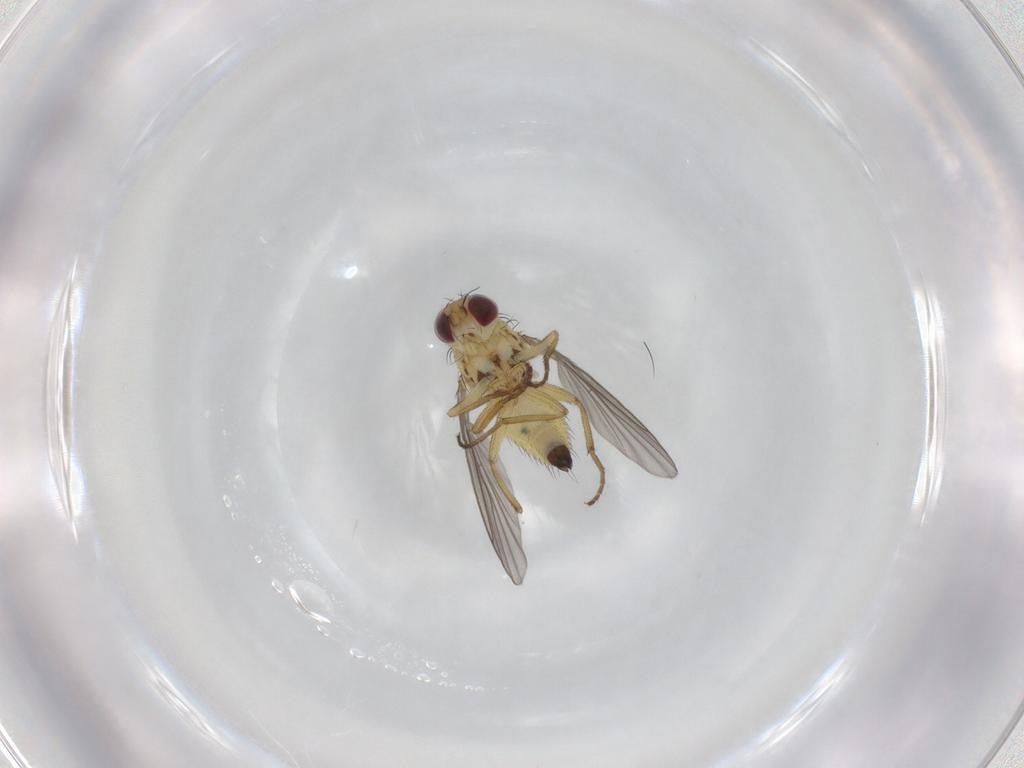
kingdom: Animalia
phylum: Arthropoda
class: Insecta
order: Diptera
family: Agromyzidae
